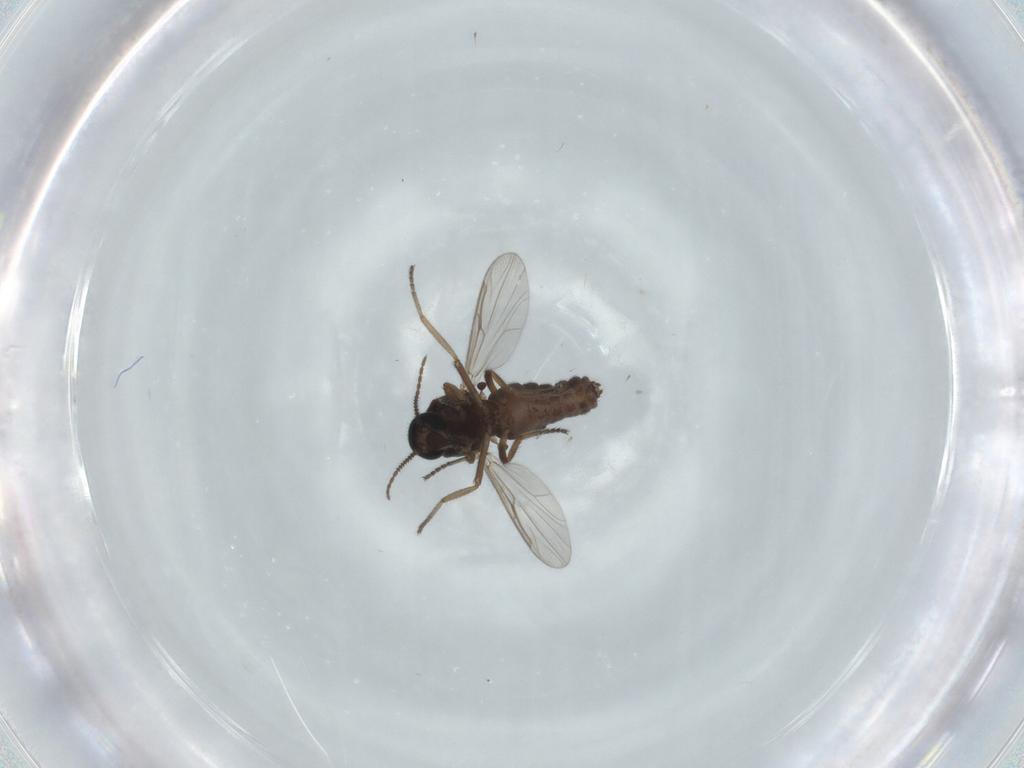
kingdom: Animalia
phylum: Arthropoda
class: Insecta
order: Diptera
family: Ceratopogonidae
